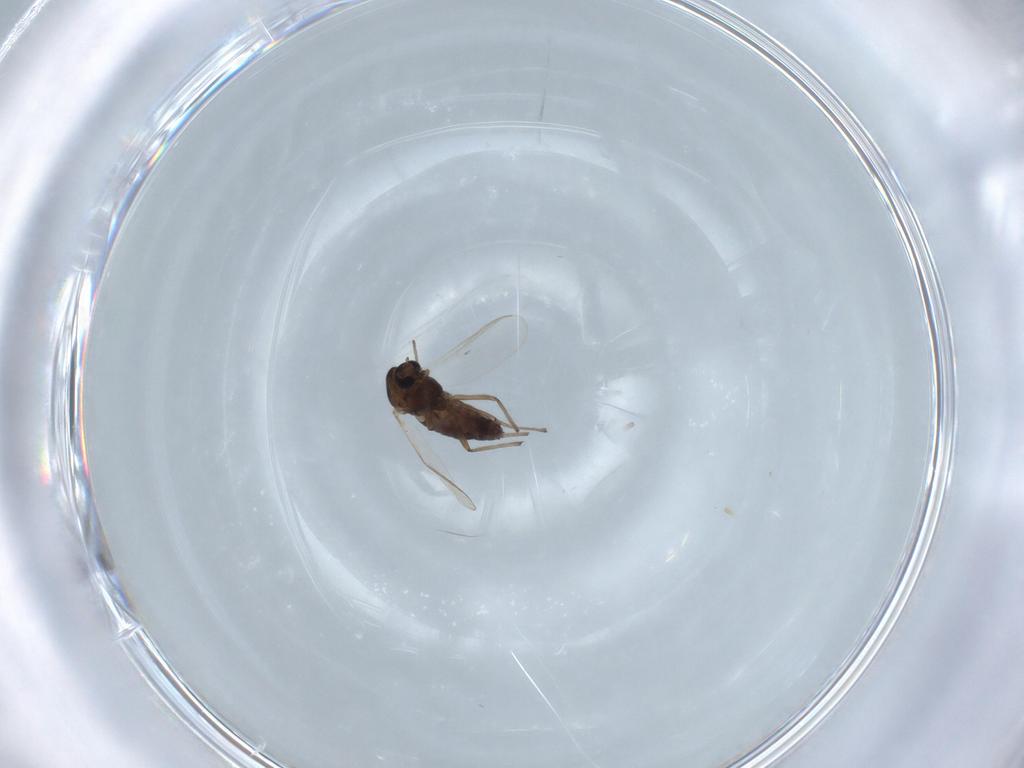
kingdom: Animalia
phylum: Arthropoda
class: Insecta
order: Diptera
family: Chironomidae
